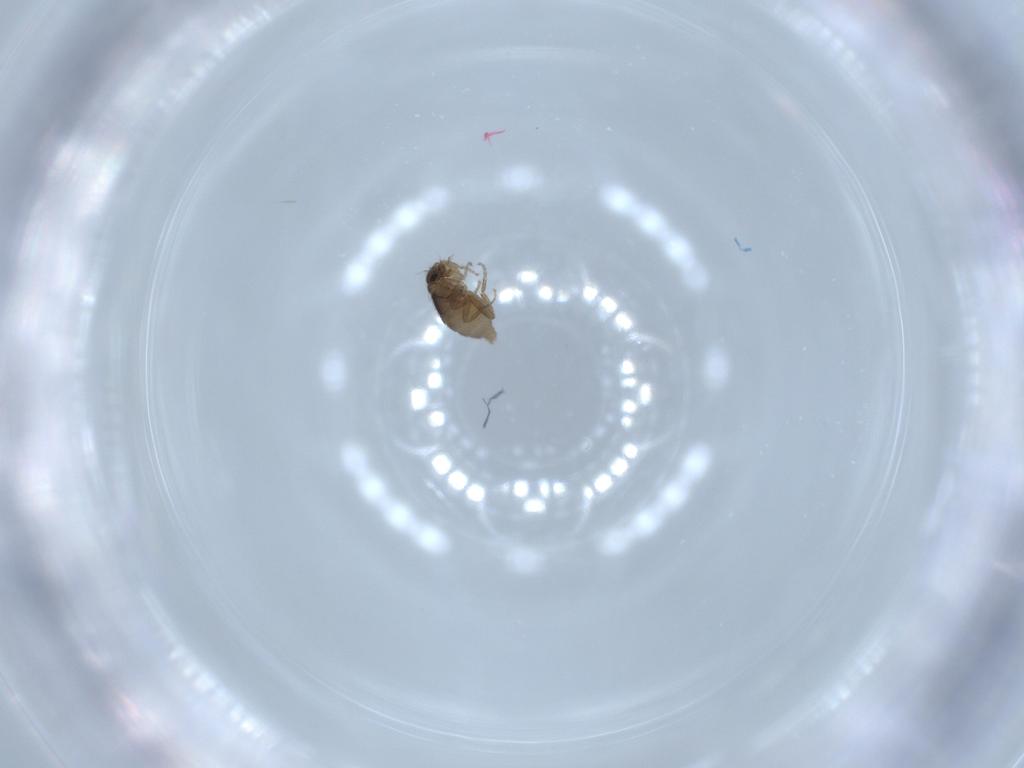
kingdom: Animalia
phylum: Arthropoda
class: Insecta
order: Diptera
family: Phoridae
